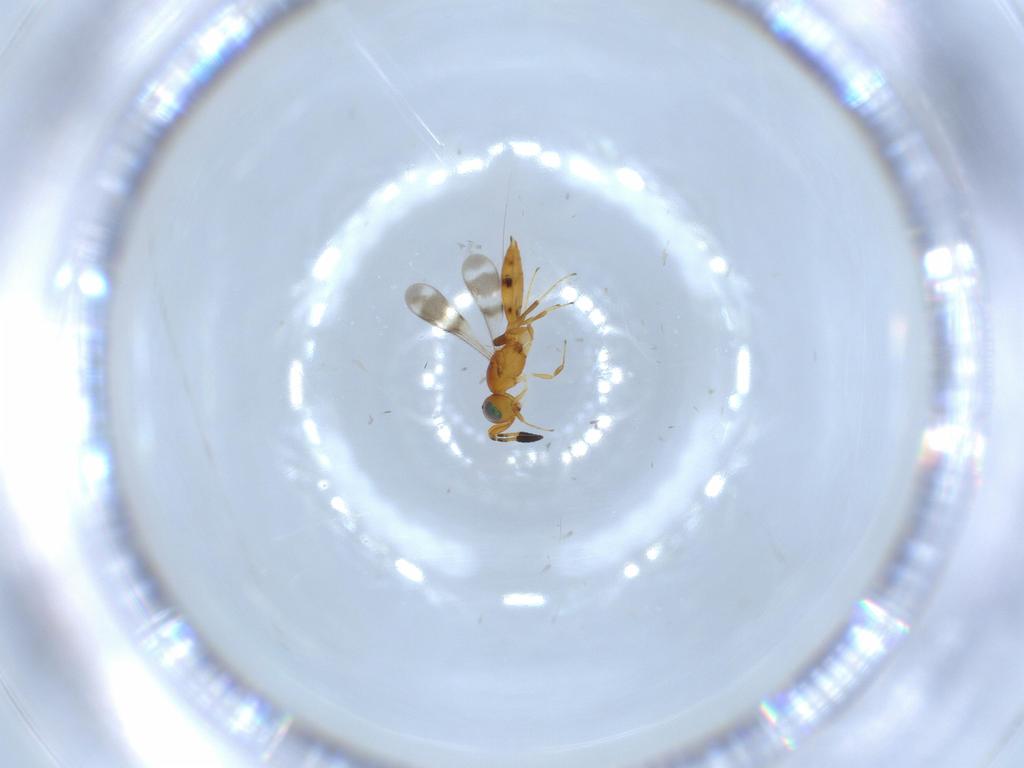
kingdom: Animalia
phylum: Arthropoda
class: Insecta
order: Hymenoptera
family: Scelionidae
